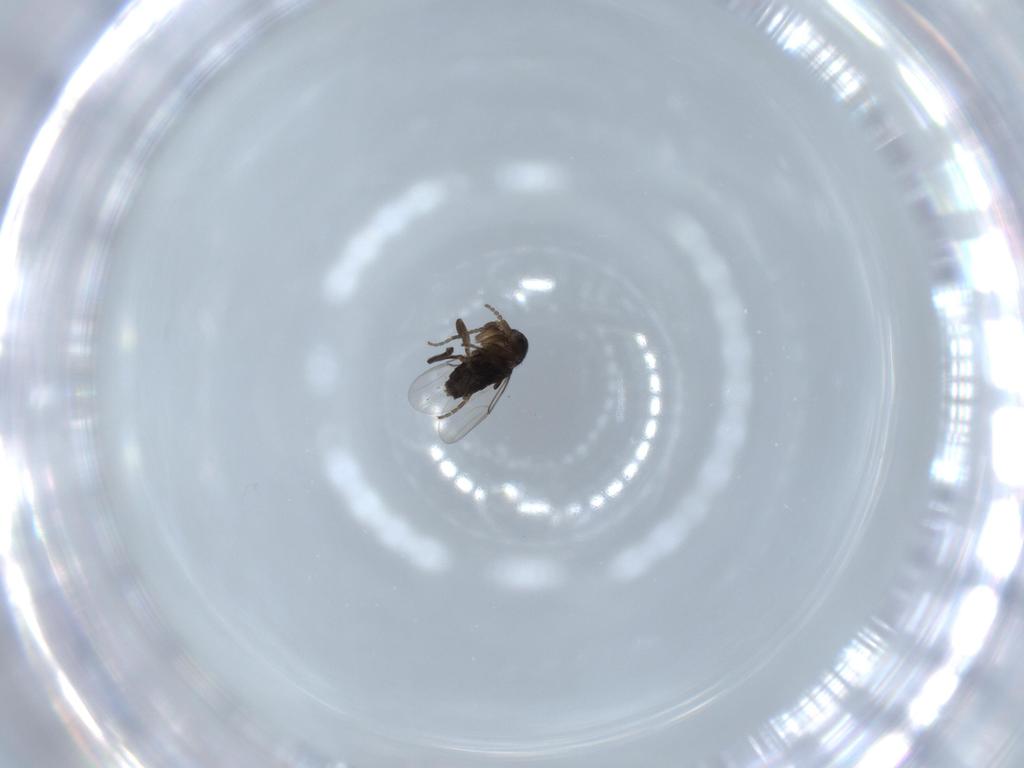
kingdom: Animalia
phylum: Arthropoda
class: Insecta
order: Diptera
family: Phoridae
